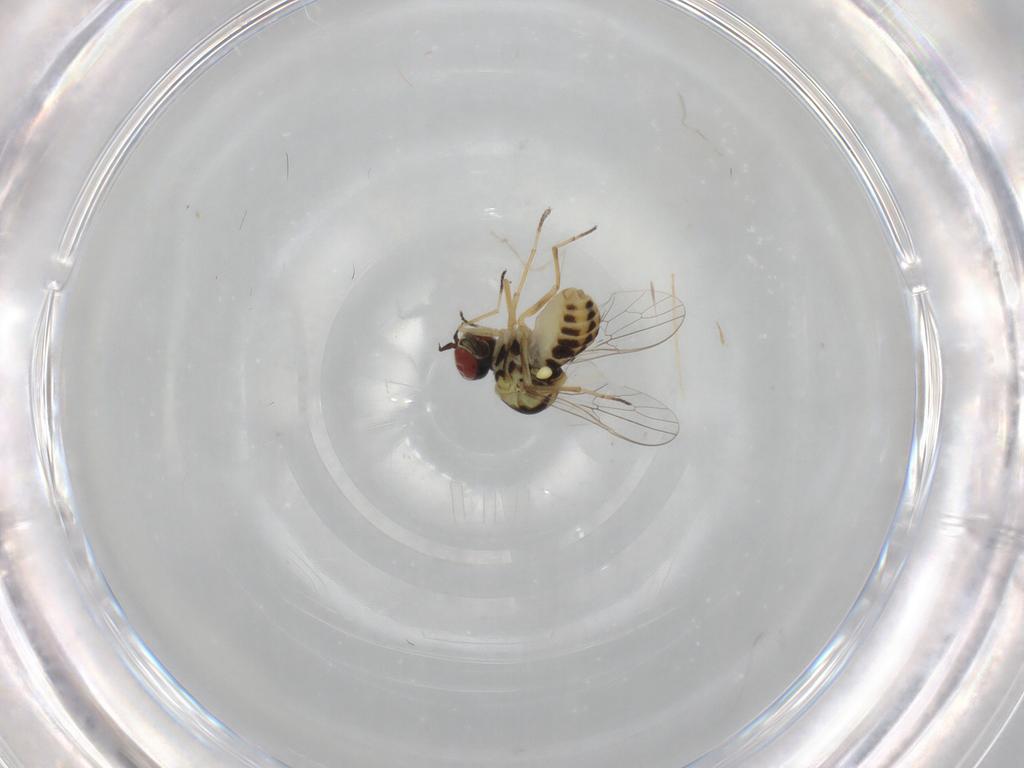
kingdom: Animalia
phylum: Arthropoda
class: Insecta
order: Diptera
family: Bombyliidae
